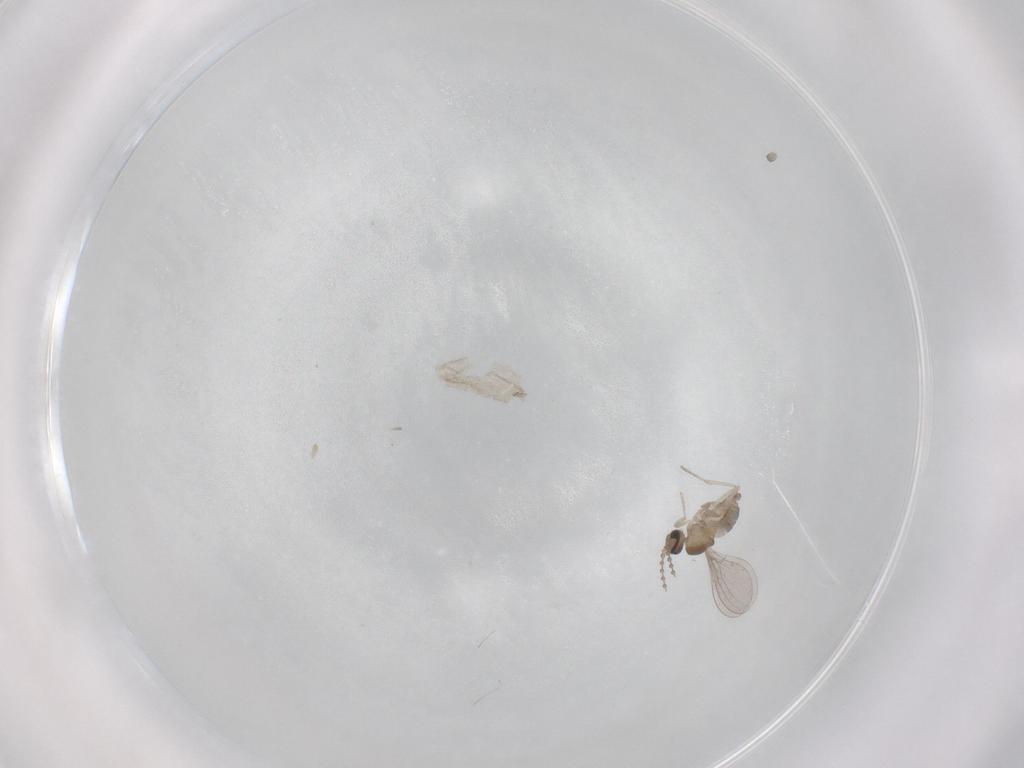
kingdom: Animalia
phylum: Arthropoda
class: Insecta
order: Diptera
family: Cecidomyiidae
